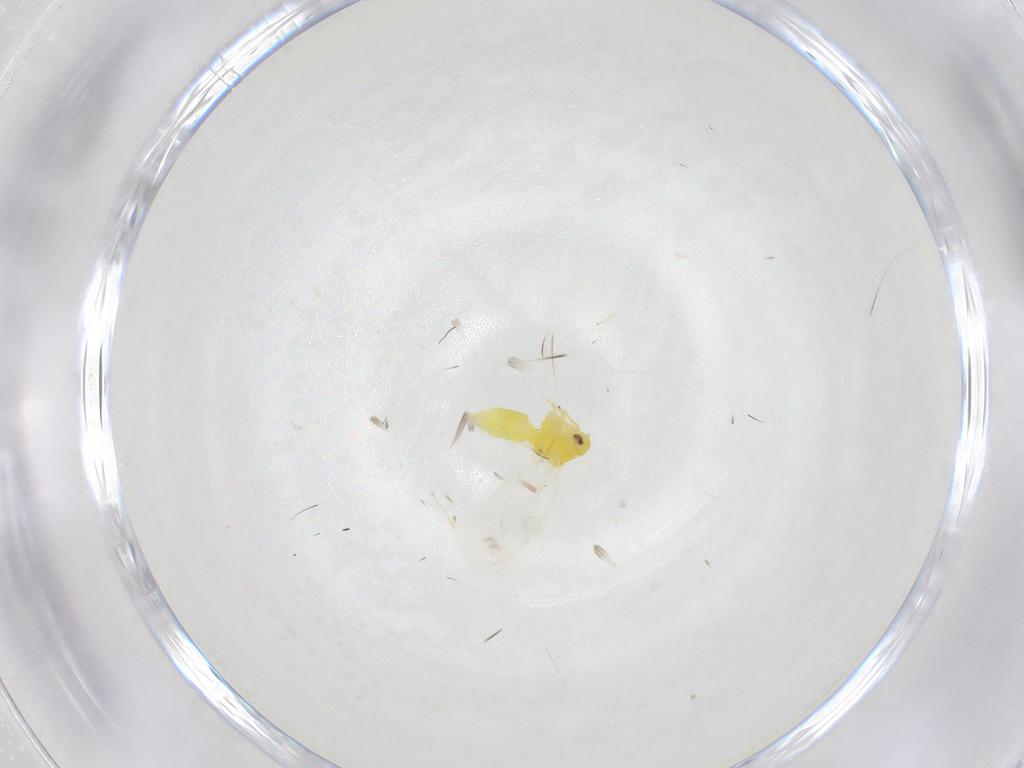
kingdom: Animalia
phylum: Arthropoda
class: Insecta
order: Hemiptera
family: Aleyrodidae
